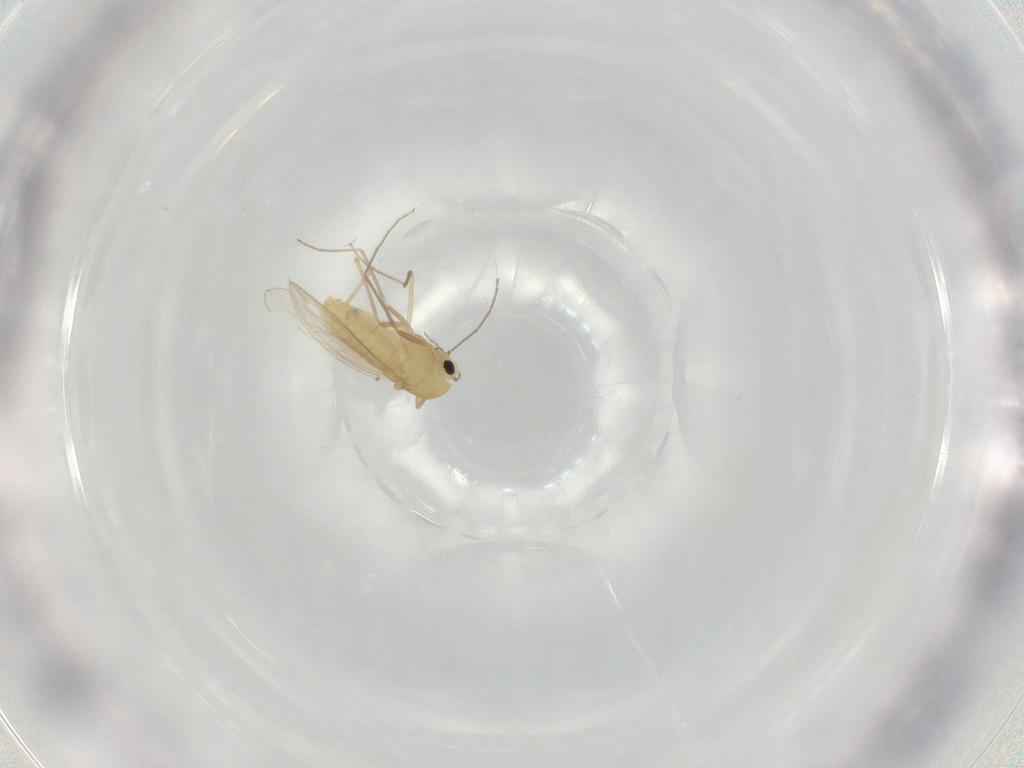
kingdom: Animalia
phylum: Arthropoda
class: Insecta
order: Diptera
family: Chironomidae
